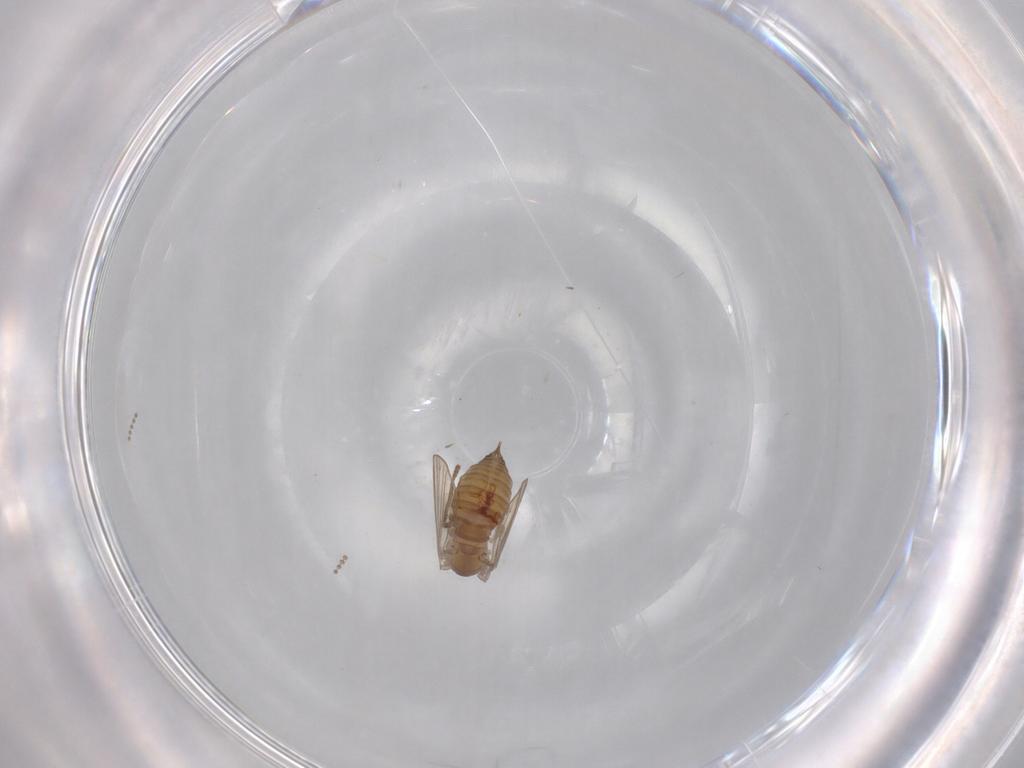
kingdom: Animalia
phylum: Arthropoda
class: Insecta
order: Diptera
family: Psychodidae
